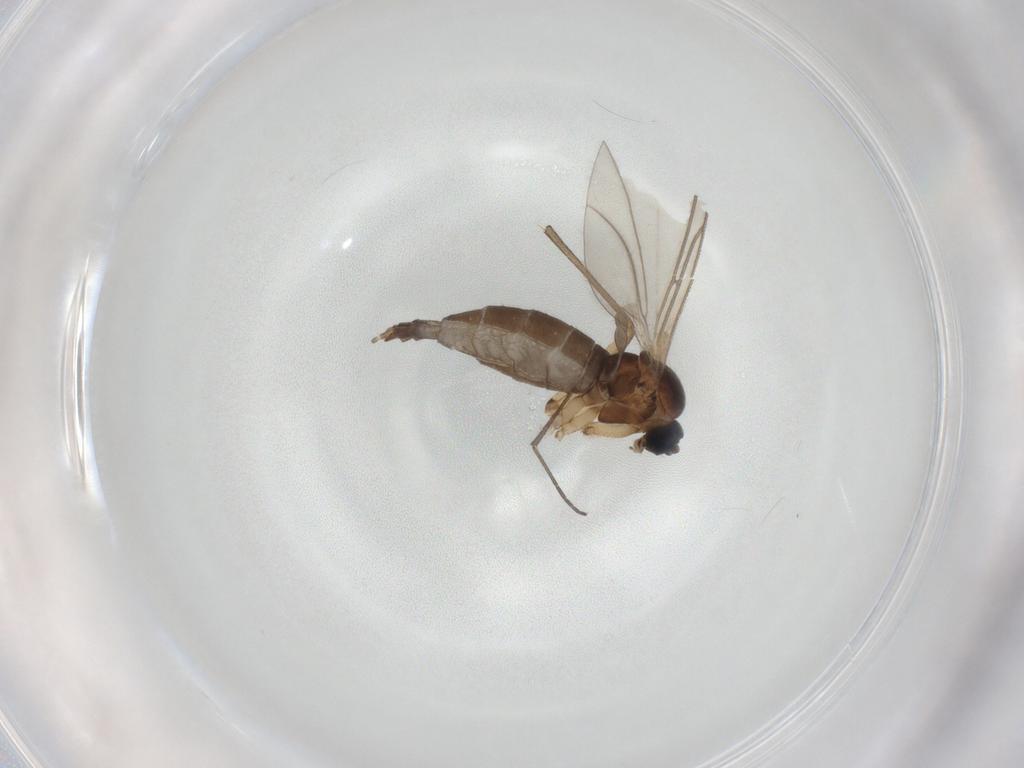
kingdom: Animalia
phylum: Arthropoda
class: Insecta
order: Diptera
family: Sciaridae
